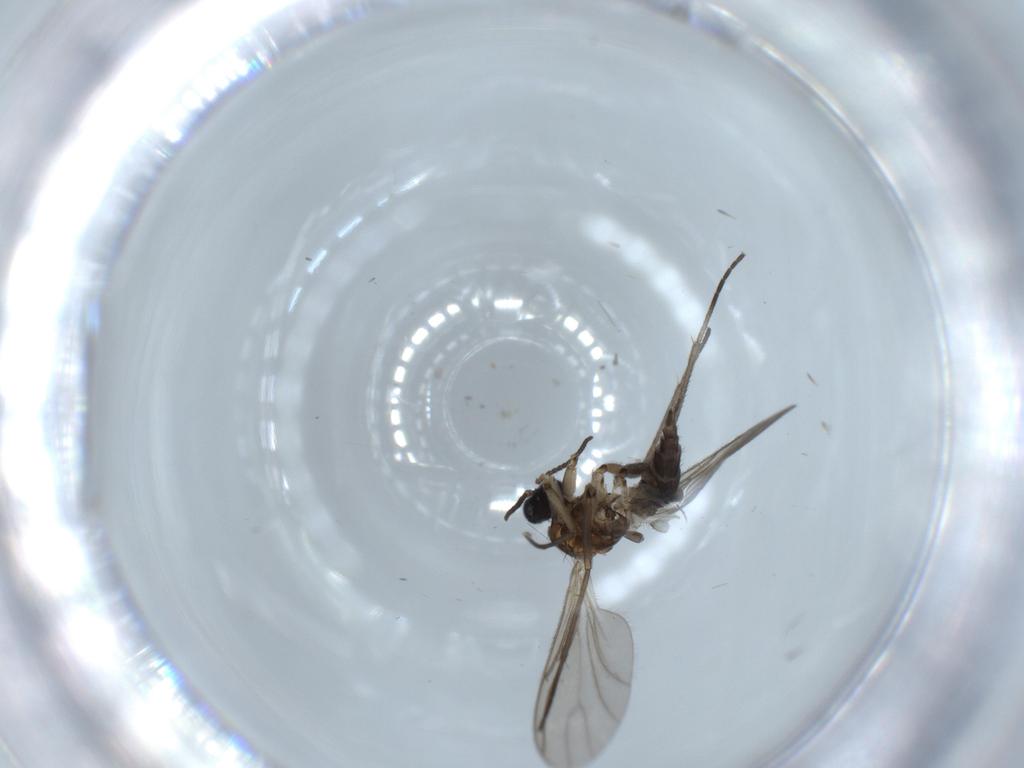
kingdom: Animalia
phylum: Arthropoda
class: Insecta
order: Diptera
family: Sciaridae
